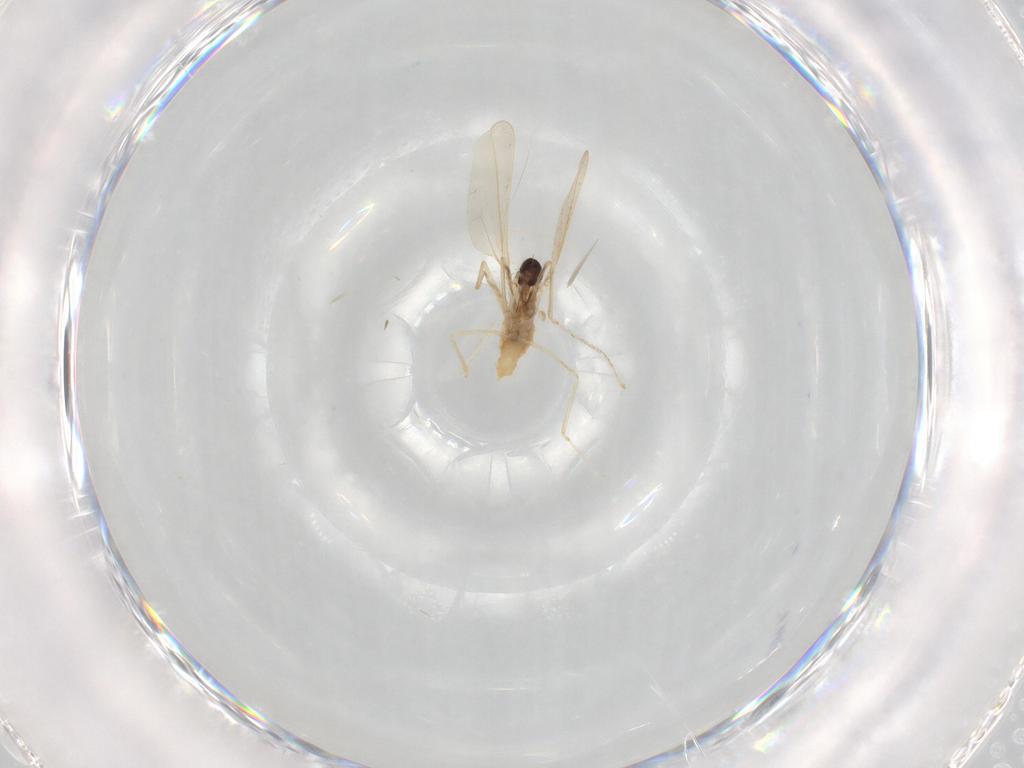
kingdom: Animalia
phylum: Arthropoda
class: Insecta
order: Diptera
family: Cecidomyiidae
